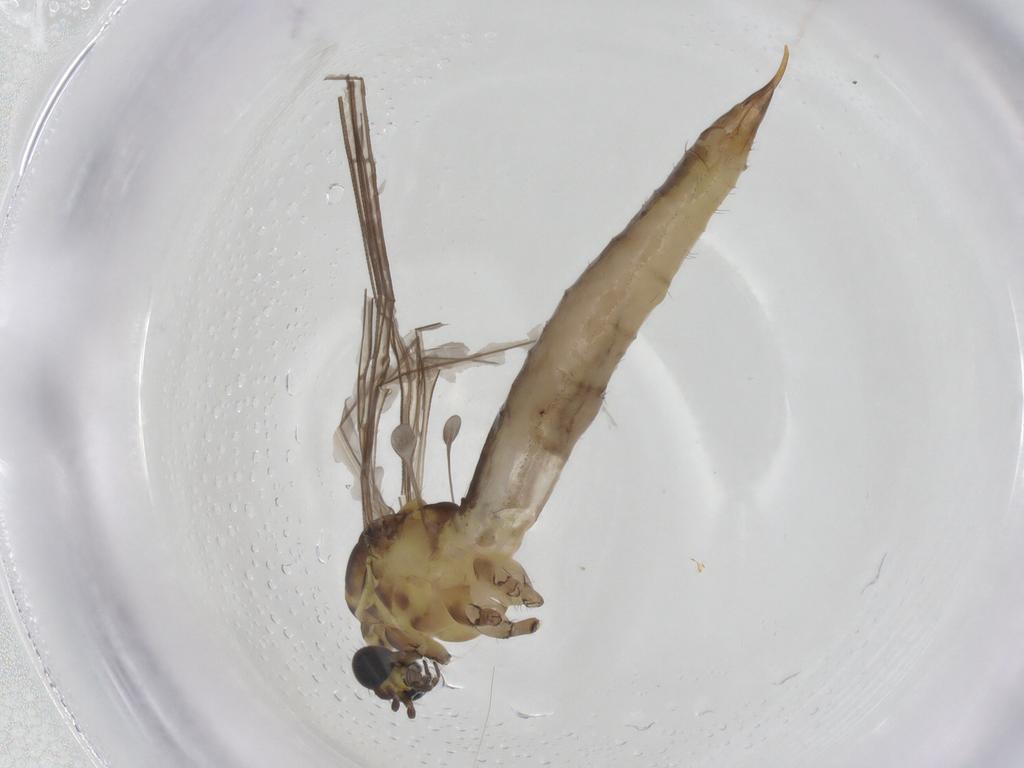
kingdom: Animalia
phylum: Arthropoda
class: Insecta
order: Diptera
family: Limoniidae
